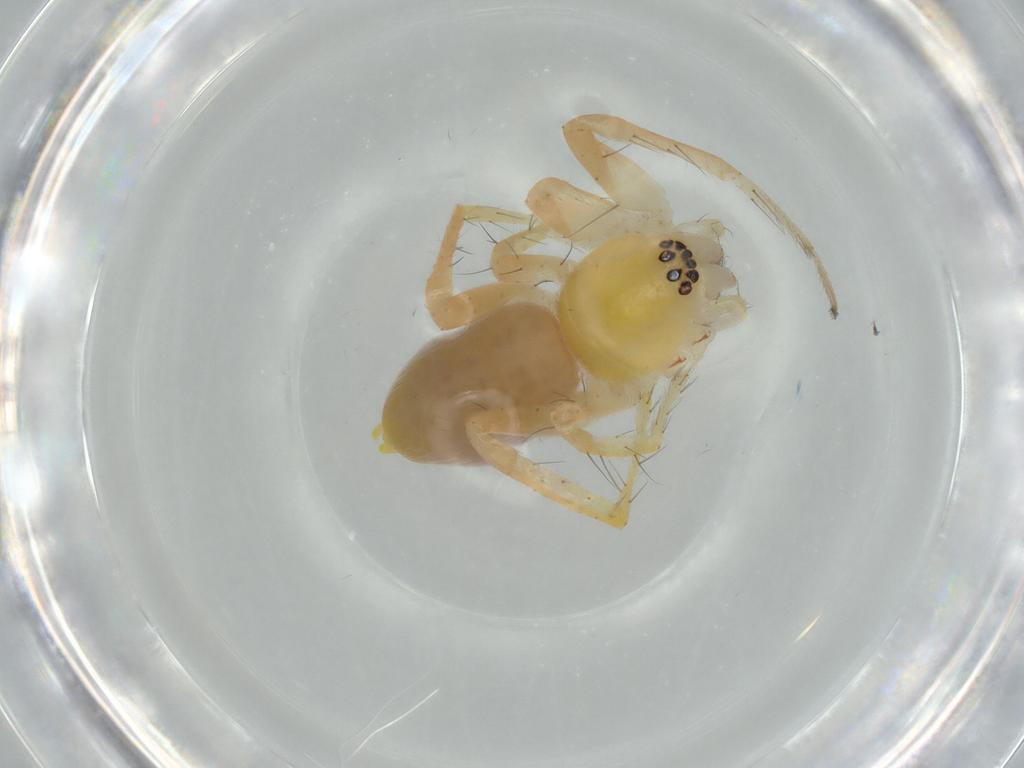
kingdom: Animalia
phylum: Arthropoda
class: Arachnida
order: Araneae
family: Anyphaenidae
